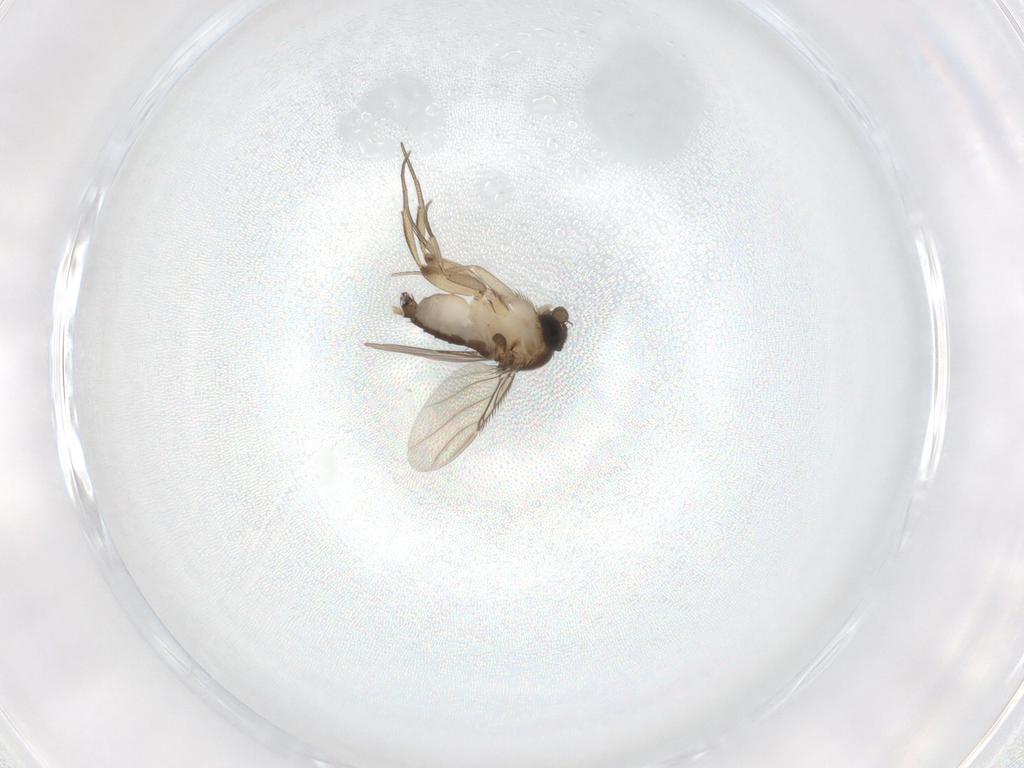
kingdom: Animalia
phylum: Arthropoda
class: Insecta
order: Diptera
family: Phoridae
